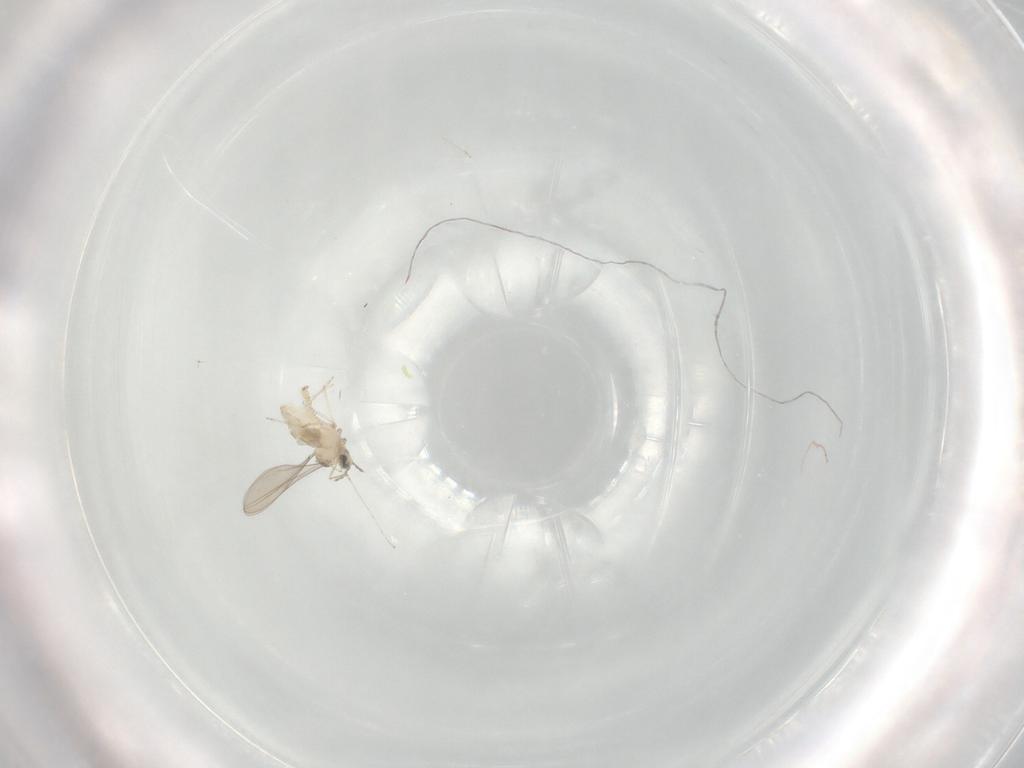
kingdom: Animalia
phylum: Arthropoda
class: Insecta
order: Diptera
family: Cecidomyiidae
